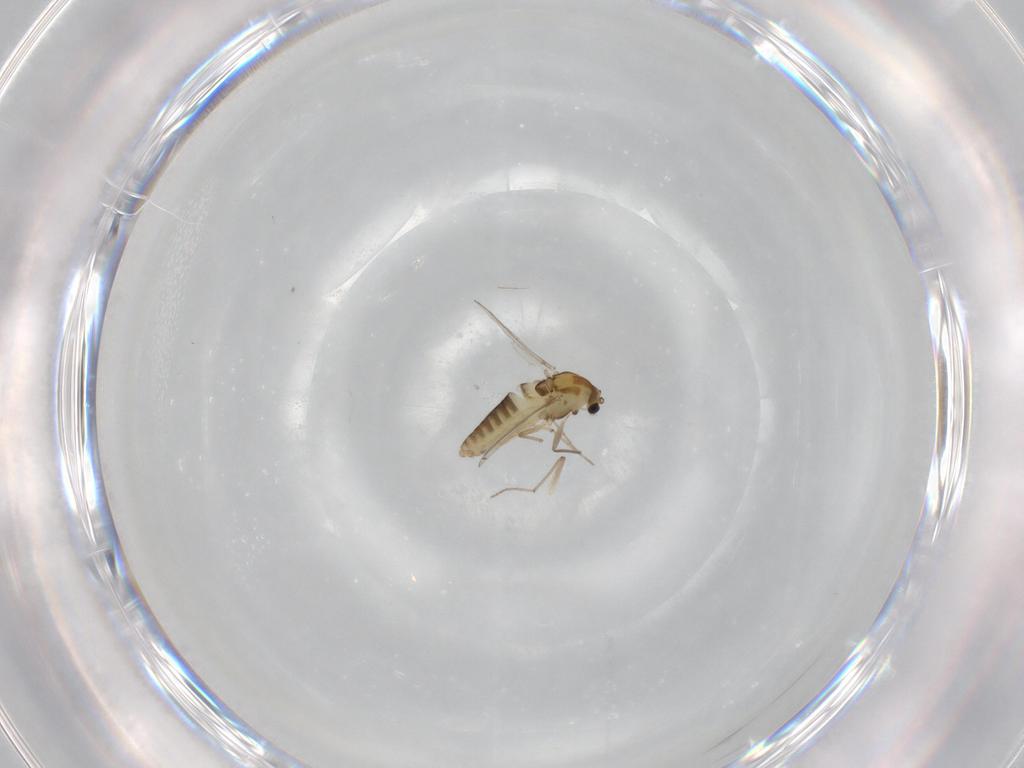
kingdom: Animalia
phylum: Arthropoda
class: Insecta
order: Diptera
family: Chironomidae
